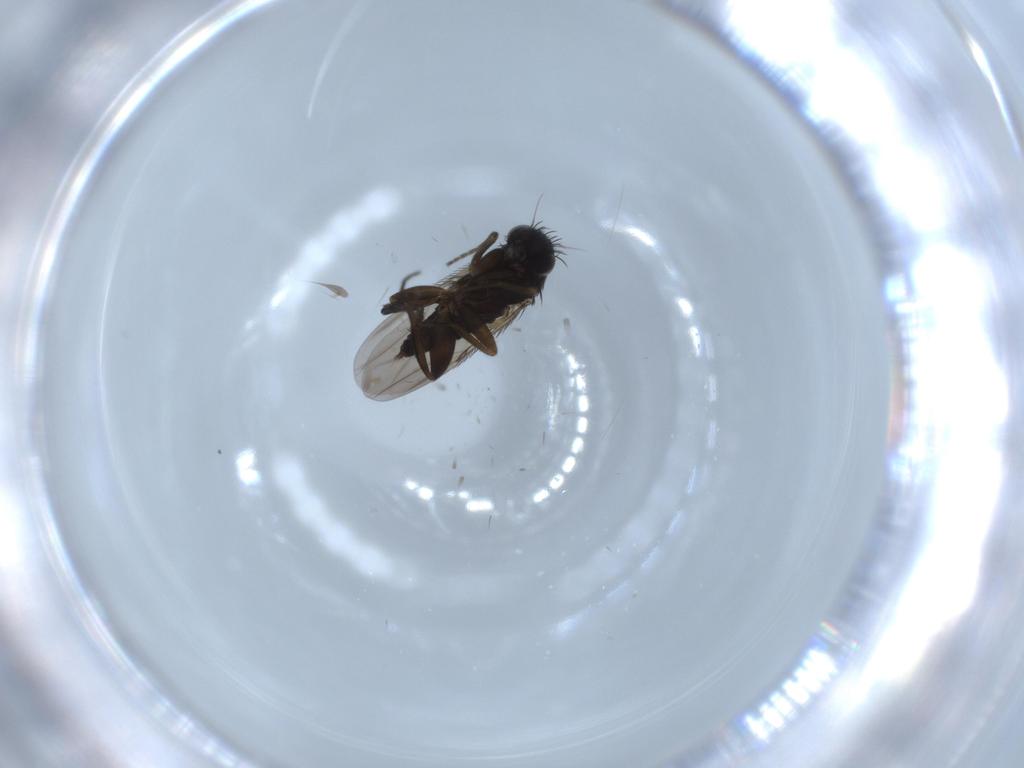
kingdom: Animalia
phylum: Arthropoda
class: Insecta
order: Diptera
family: Phoridae
